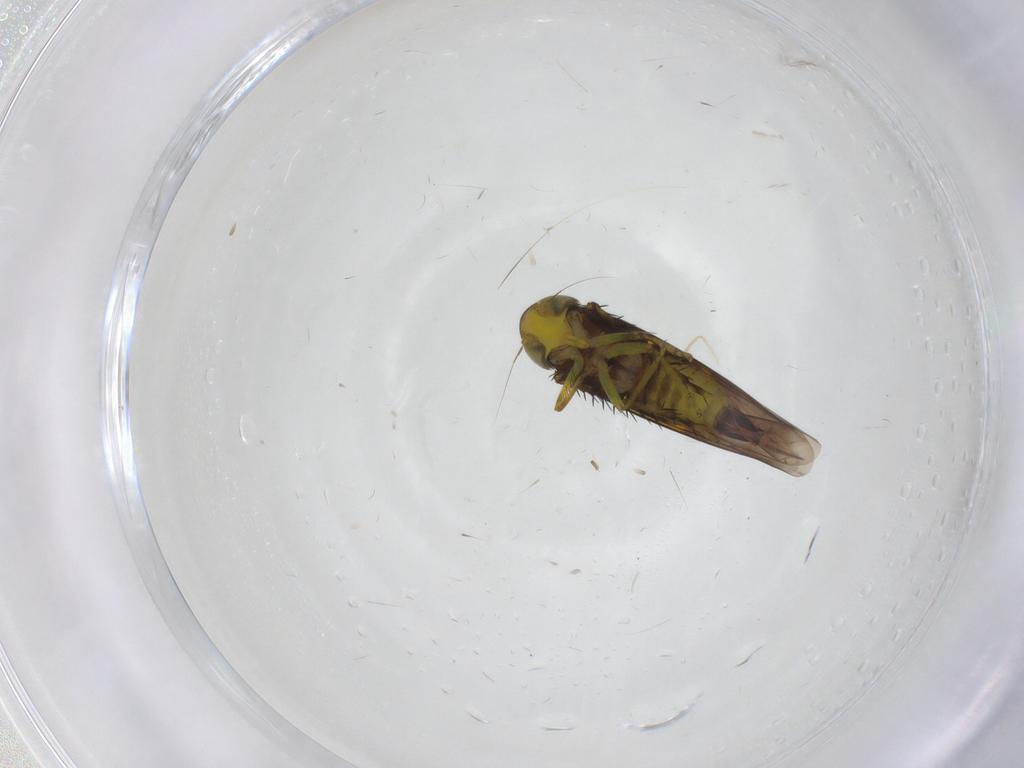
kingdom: Animalia
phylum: Arthropoda
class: Insecta
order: Hemiptera
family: Cicadellidae
